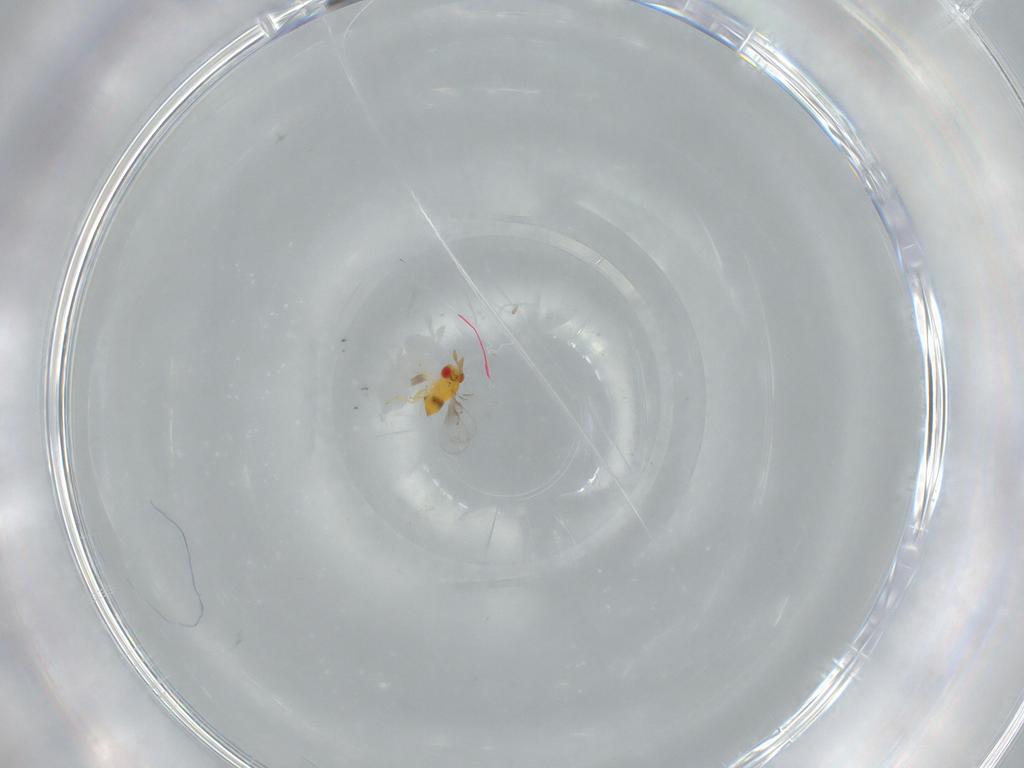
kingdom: Animalia
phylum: Arthropoda
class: Insecta
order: Hymenoptera
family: Trichogrammatidae
